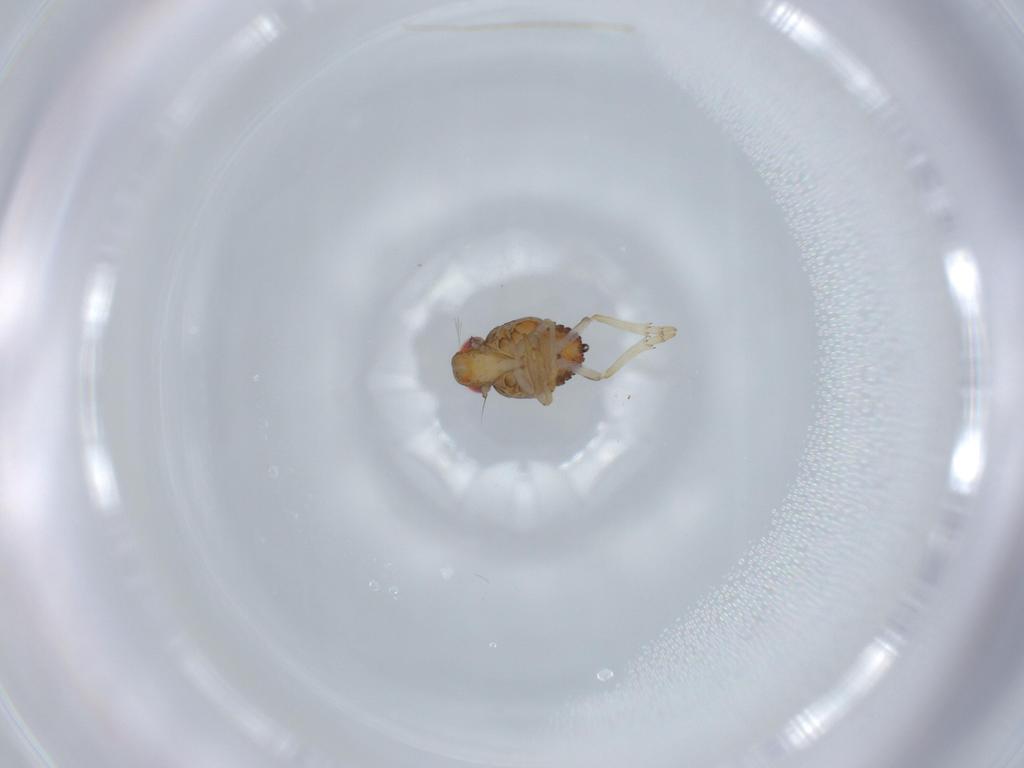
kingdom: Animalia
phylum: Arthropoda
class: Insecta
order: Hemiptera
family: Issidae
